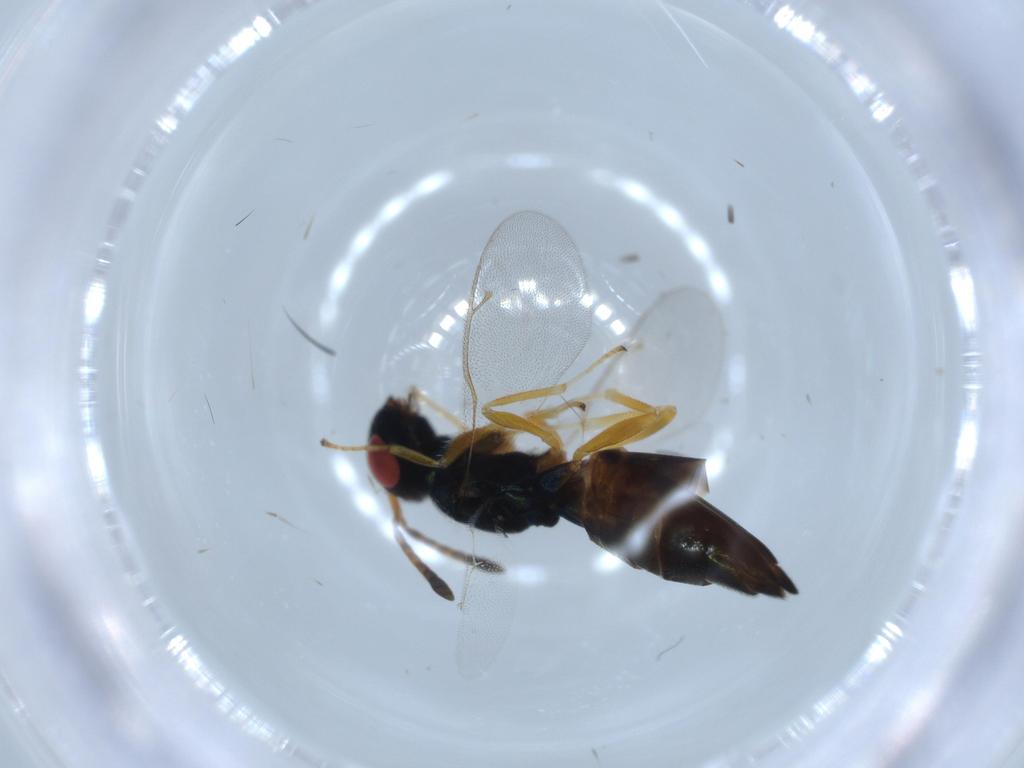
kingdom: Animalia
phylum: Arthropoda
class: Insecta
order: Hymenoptera
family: Pteromalidae
